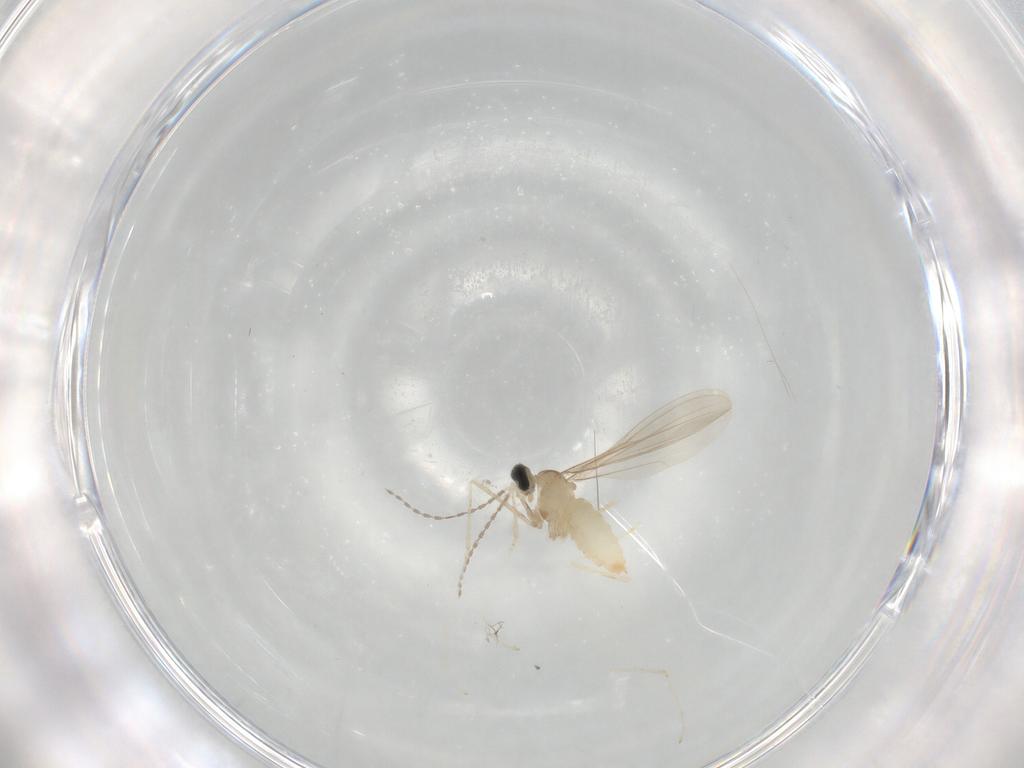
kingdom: Animalia
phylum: Arthropoda
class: Insecta
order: Diptera
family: Cecidomyiidae
